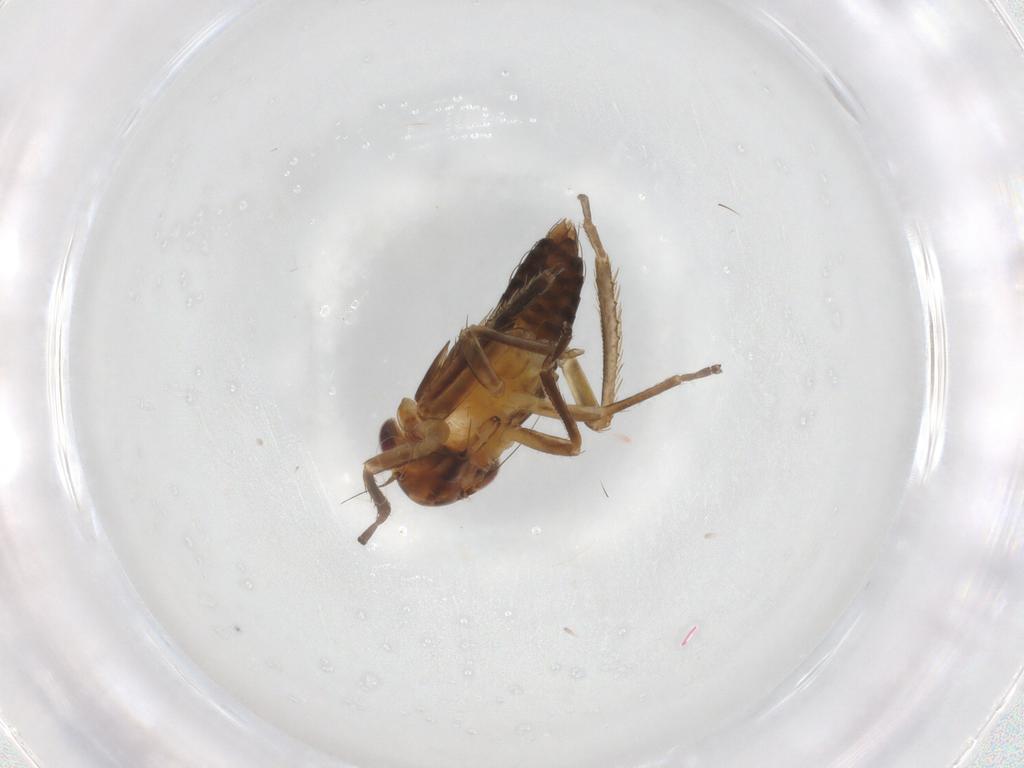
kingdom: Animalia
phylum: Arthropoda
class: Insecta
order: Hemiptera
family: Cicadellidae
